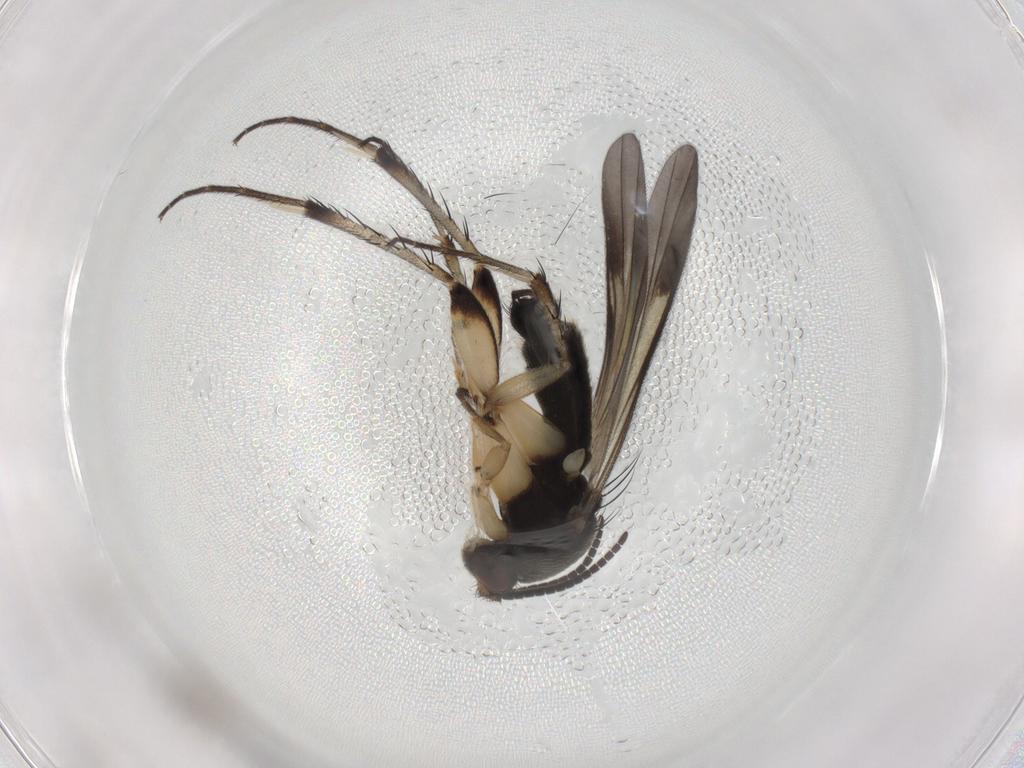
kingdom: Animalia
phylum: Arthropoda
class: Insecta
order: Diptera
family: Mycetophilidae
